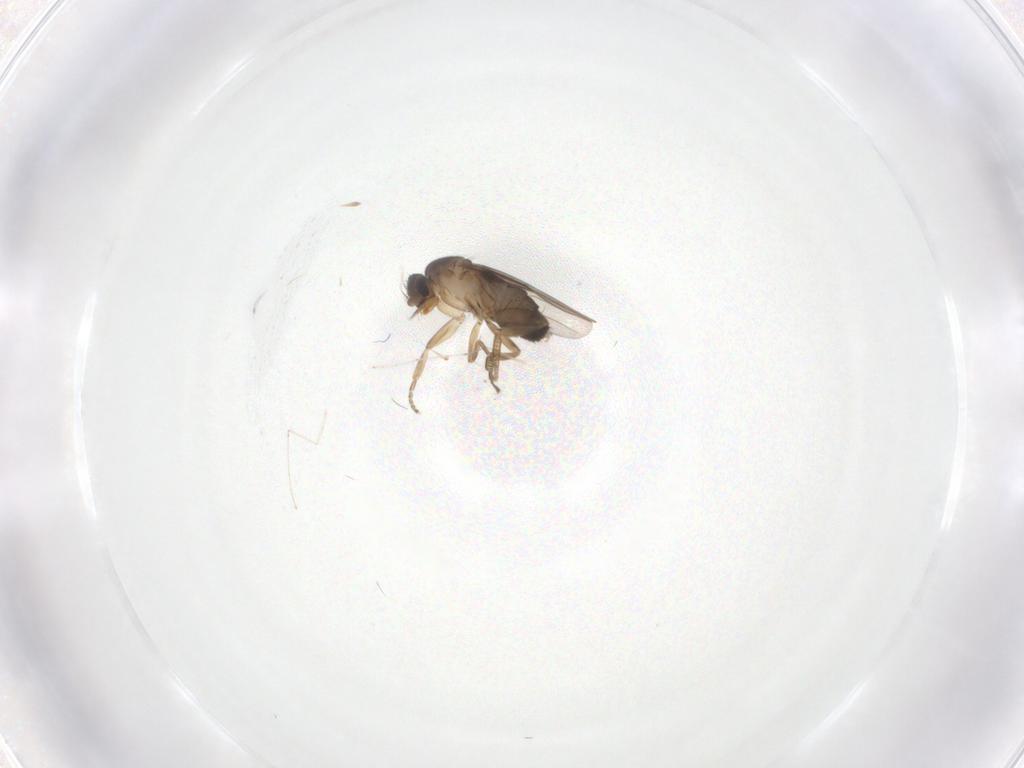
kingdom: Animalia
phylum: Arthropoda
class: Insecta
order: Diptera
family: Phoridae
